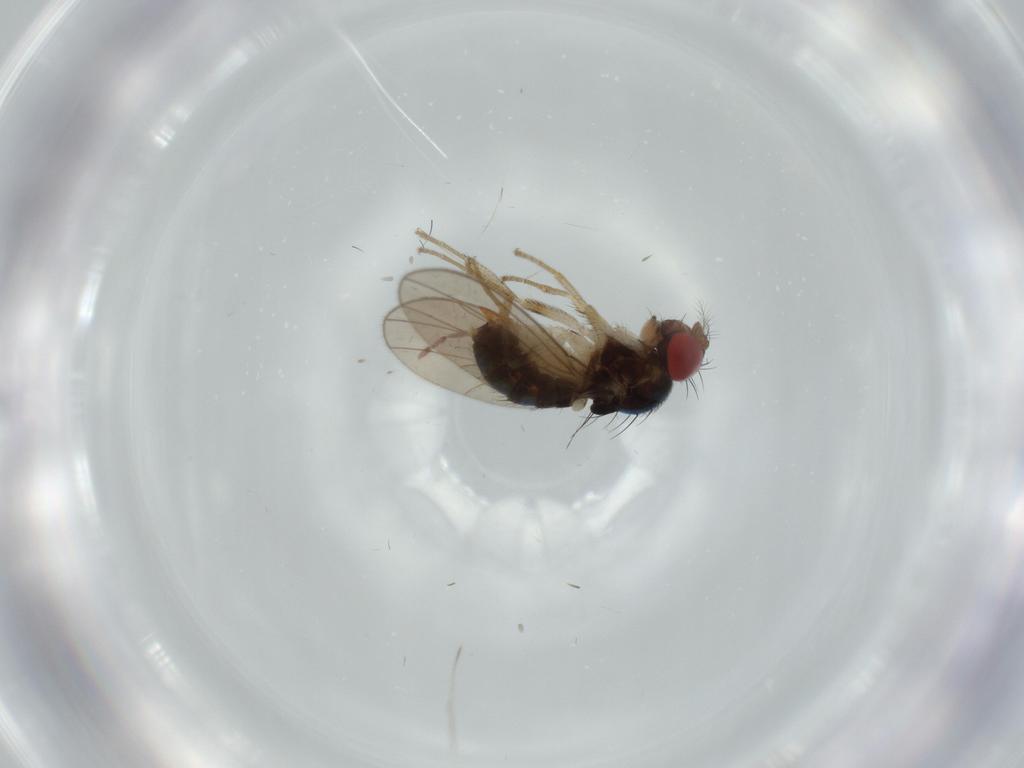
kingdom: Animalia
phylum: Arthropoda
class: Insecta
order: Diptera
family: Drosophilidae
